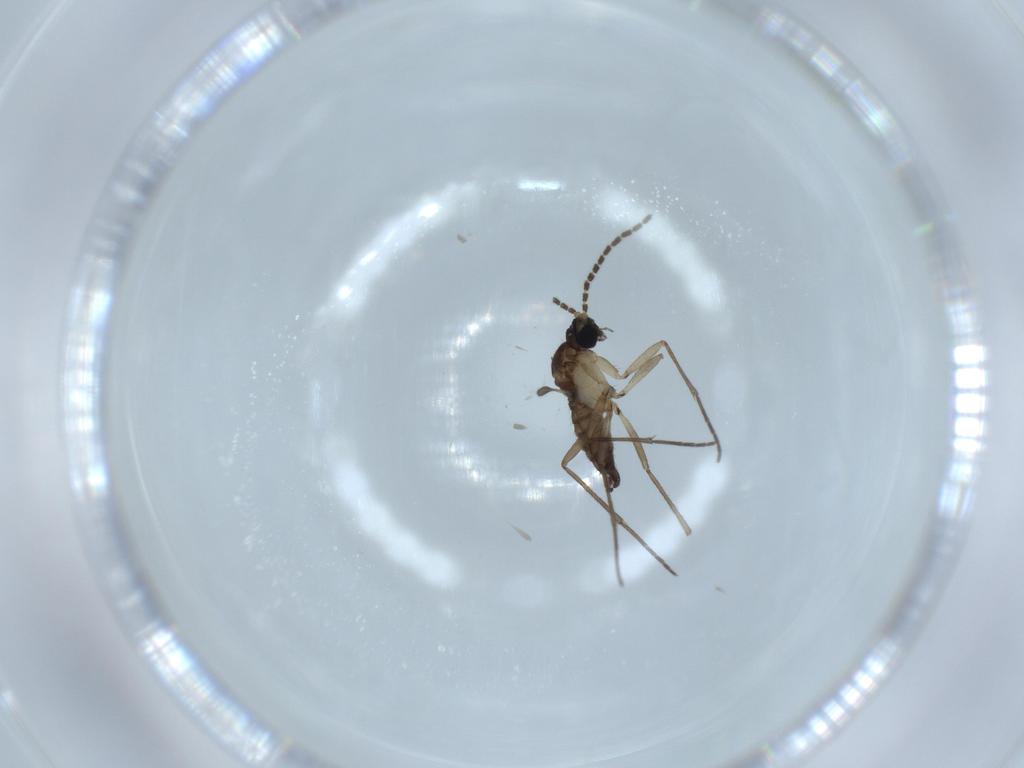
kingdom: Animalia
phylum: Arthropoda
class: Insecta
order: Diptera
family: Sciaridae
